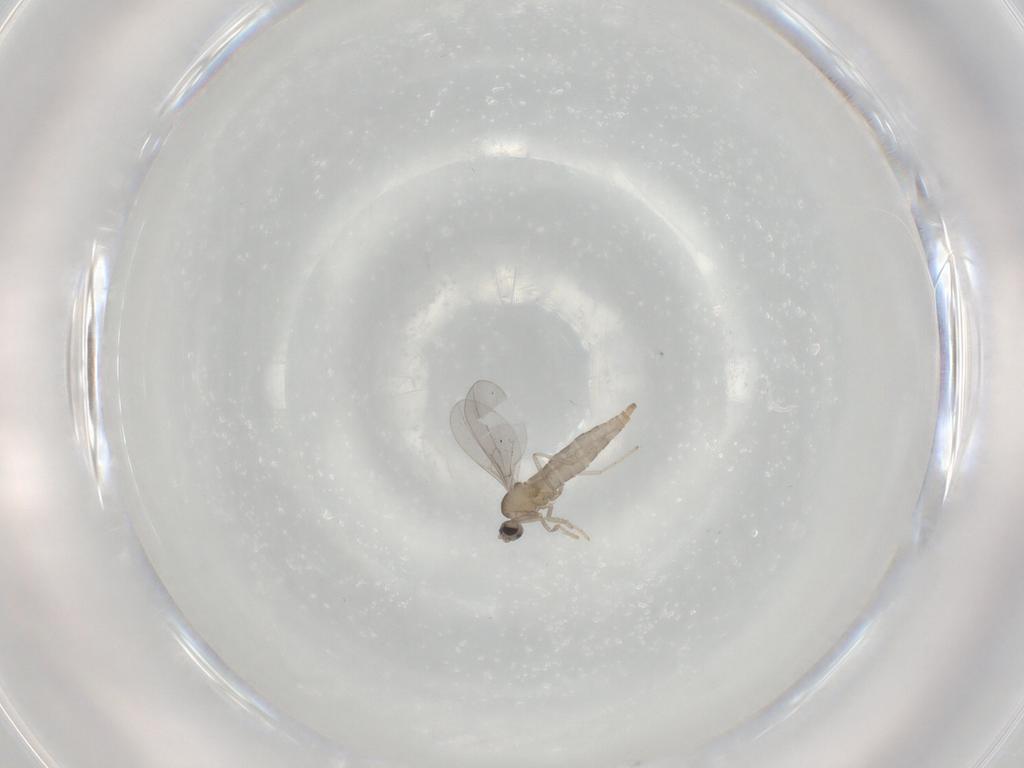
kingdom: Animalia
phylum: Arthropoda
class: Insecta
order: Diptera
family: Cecidomyiidae
